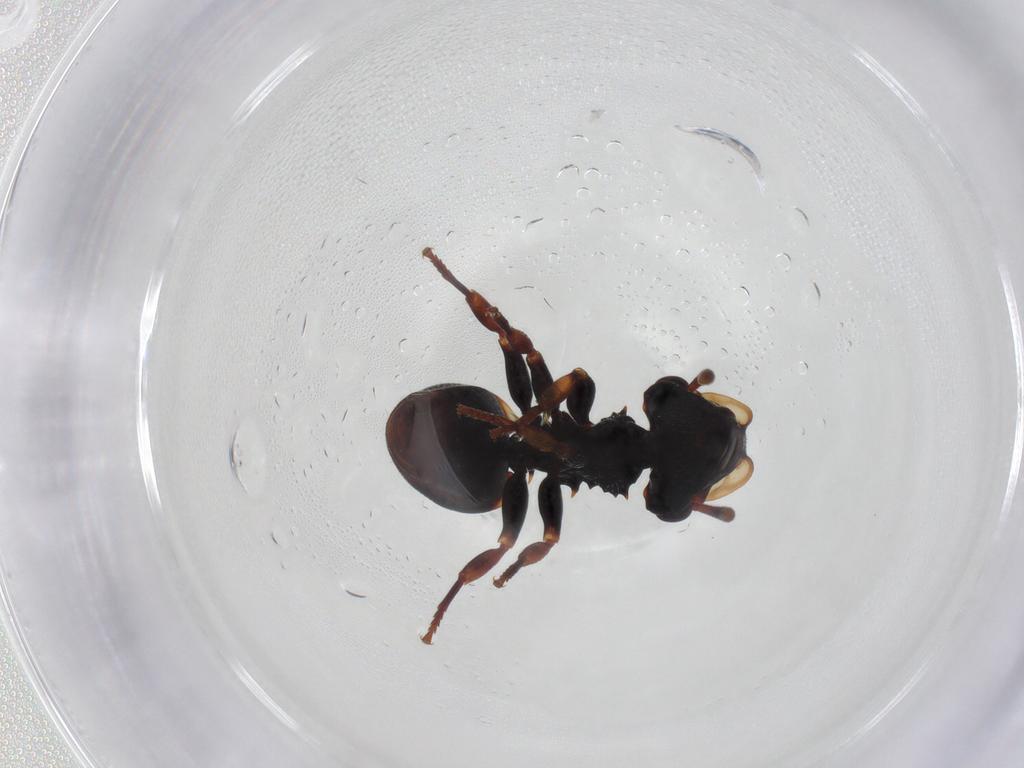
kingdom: Animalia
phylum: Arthropoda
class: Insecta
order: Hymenoptera
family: Formicidae
